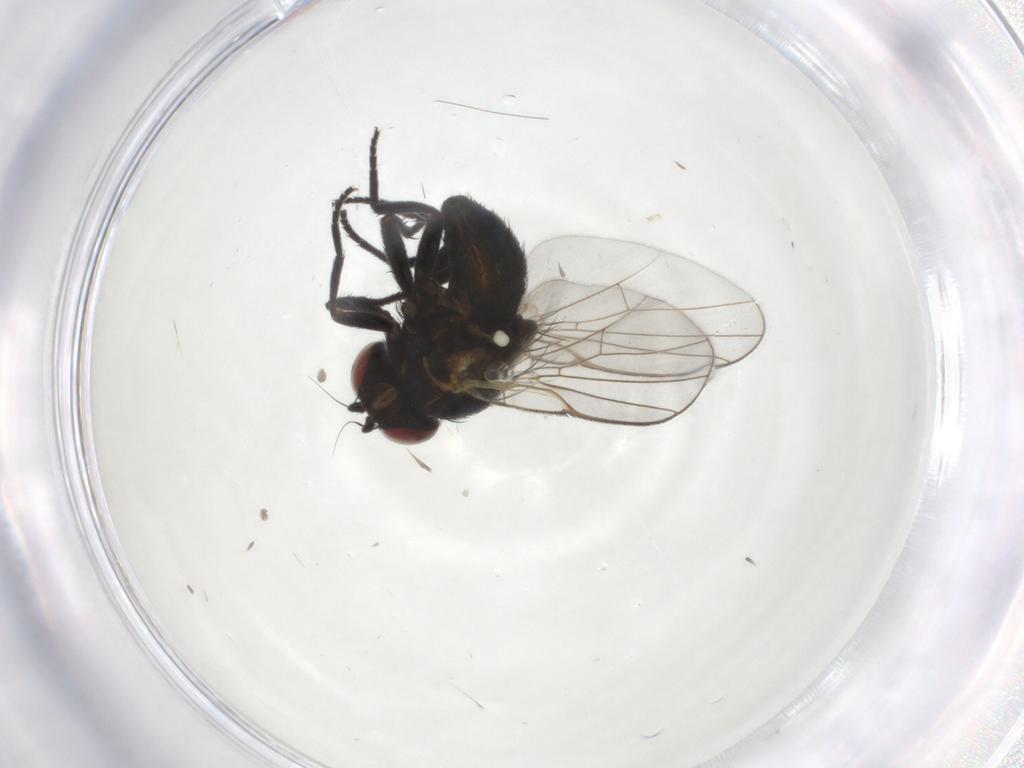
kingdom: Animalia
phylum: Arthropoda
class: Insecta
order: Diptera
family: Agromyzidae
